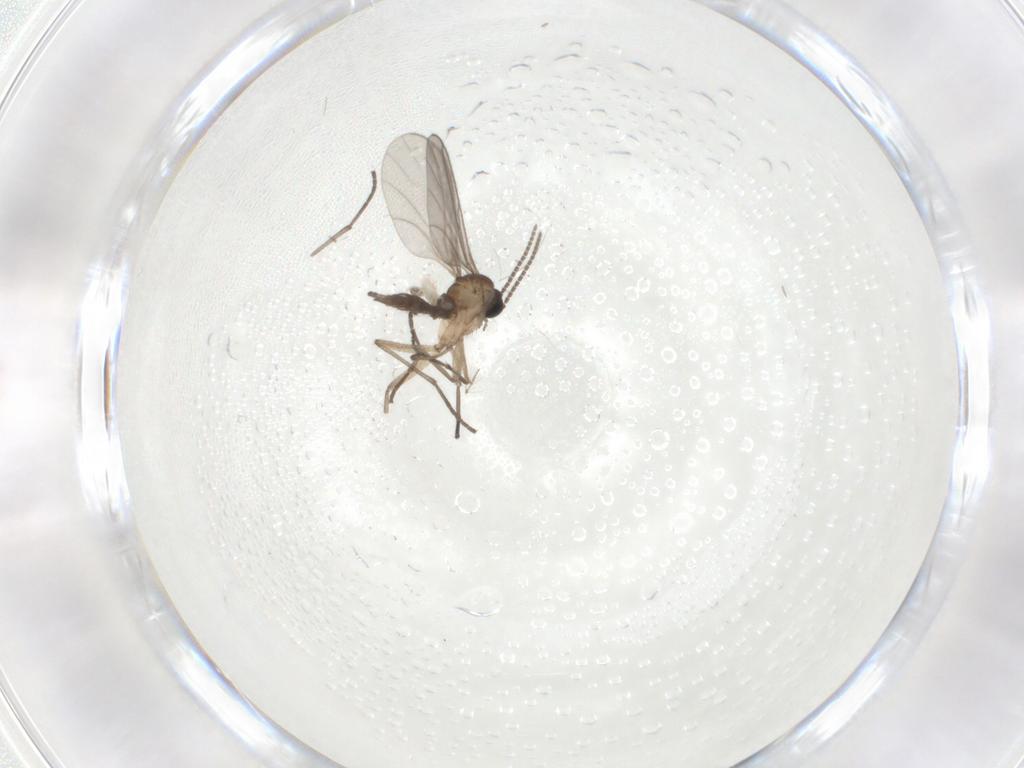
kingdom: Animalia
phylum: Arthropoda
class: Insecta
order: Diptera
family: Sciaridae
